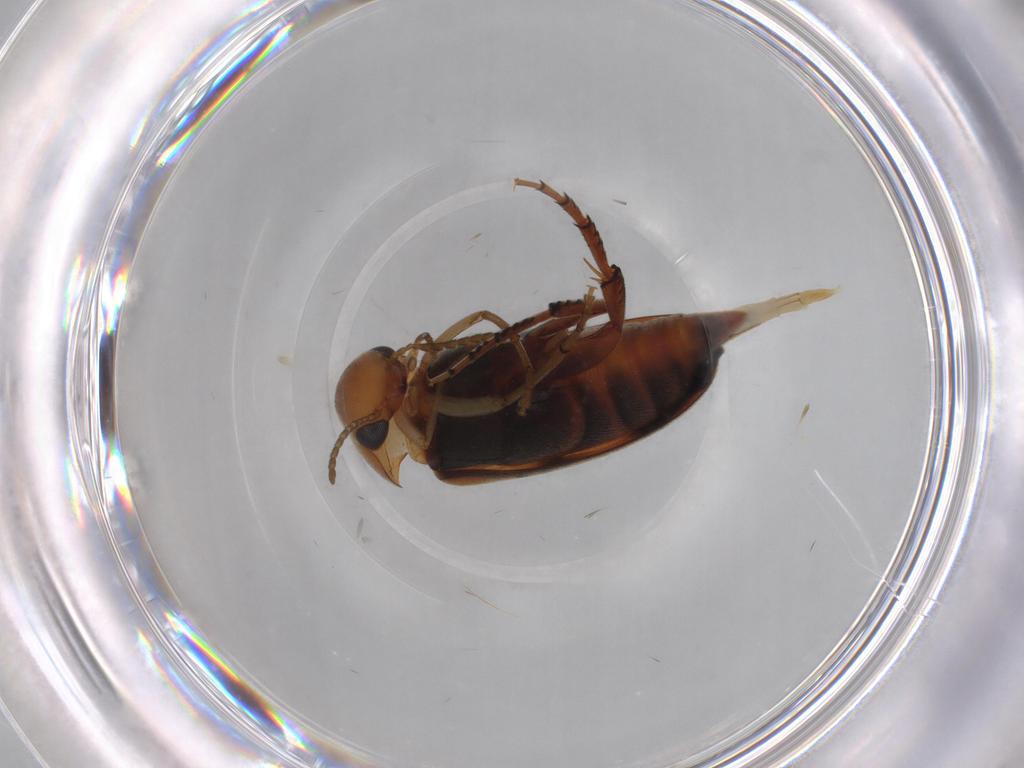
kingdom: Animalia
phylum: Arthropoda
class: Insecta
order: Coleoptera
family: Mordellidae
